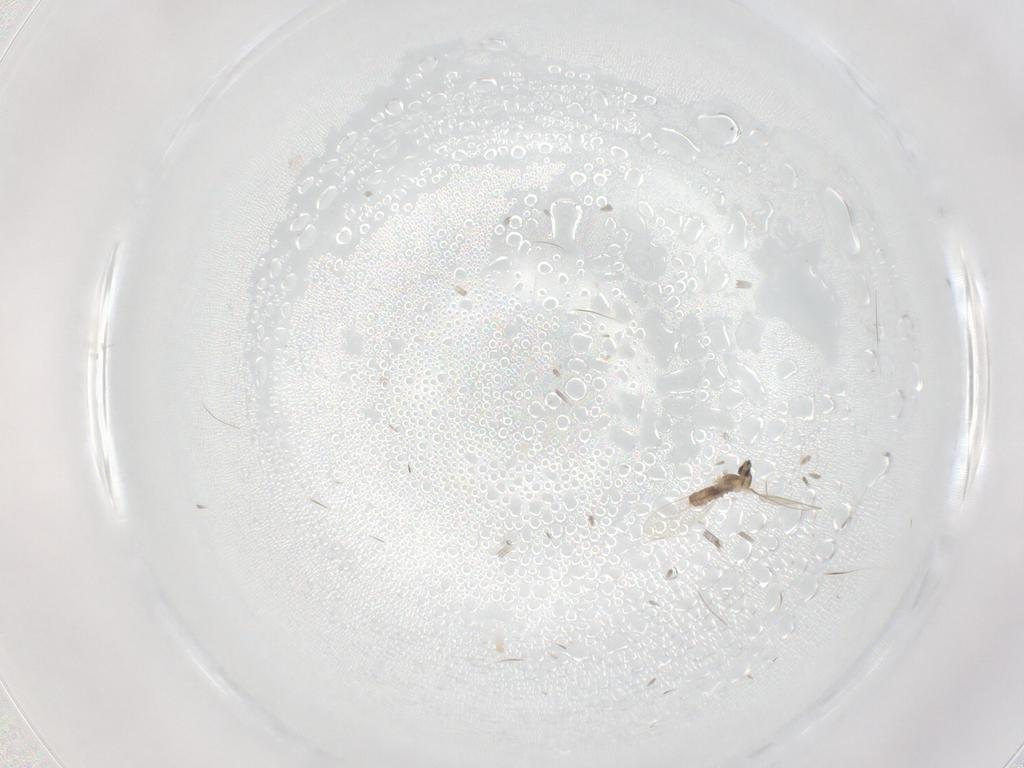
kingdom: Animalia
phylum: Arthropoda
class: Insecta
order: Diptera
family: Cecidomyiidae
